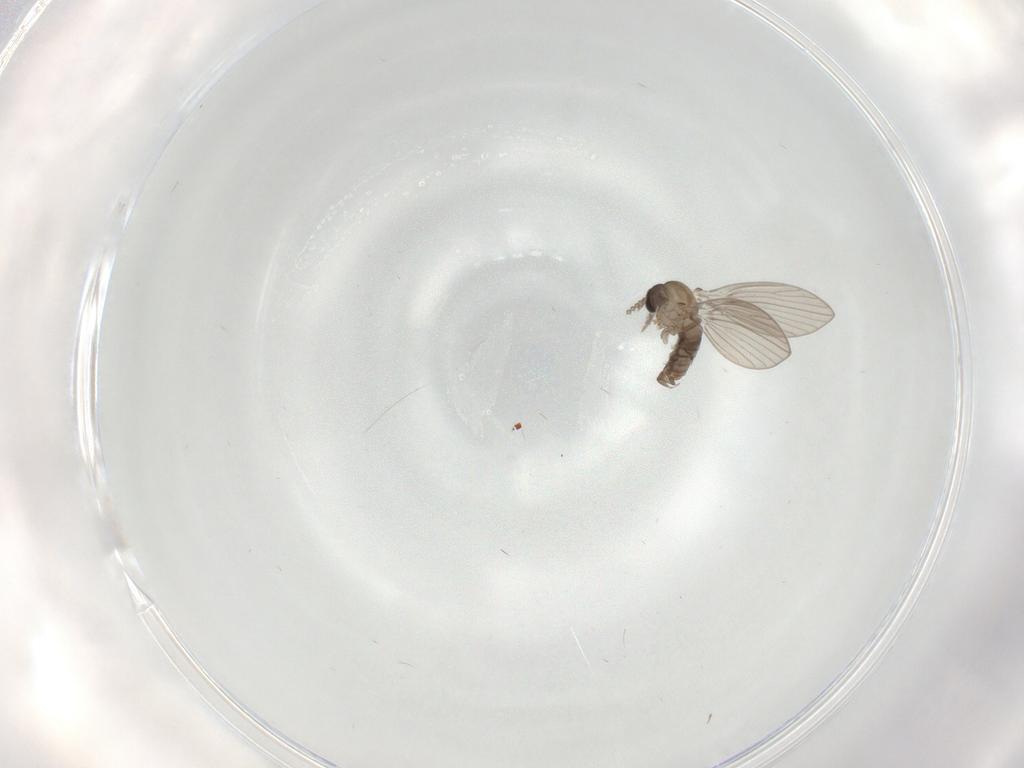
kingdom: Animalia
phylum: Arthropoda
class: Insecta
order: Diptera
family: Psychodidae
